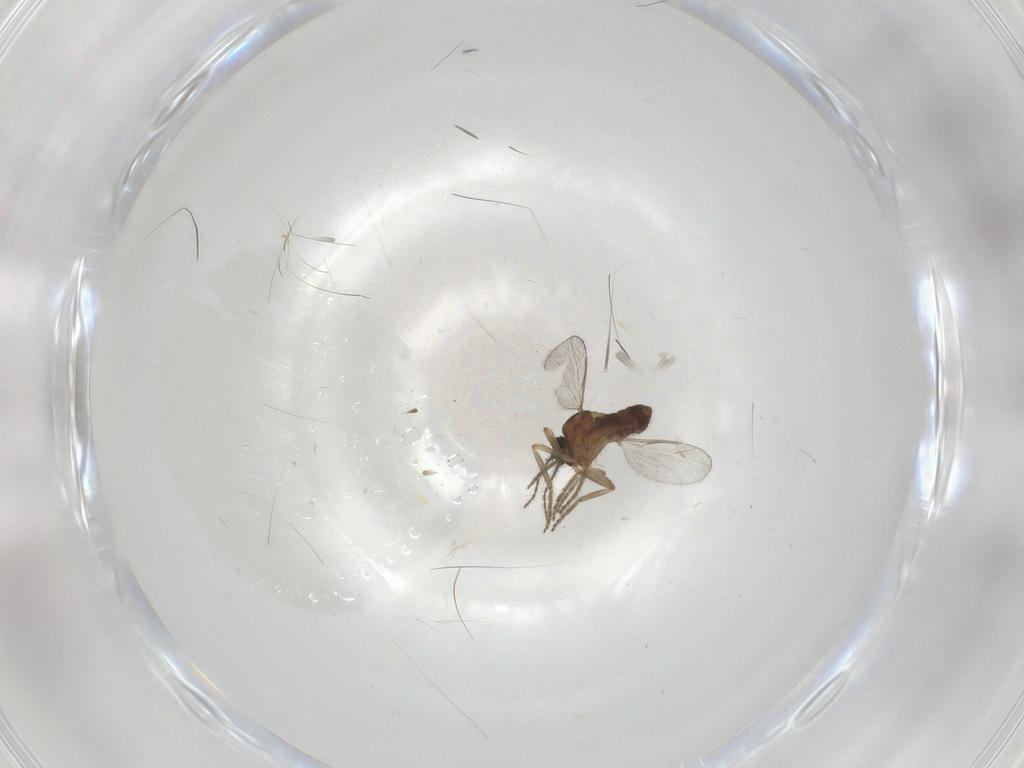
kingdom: Animalia
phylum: Arthropoda
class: Insecta
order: Diptera
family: Ceratopogonidae
